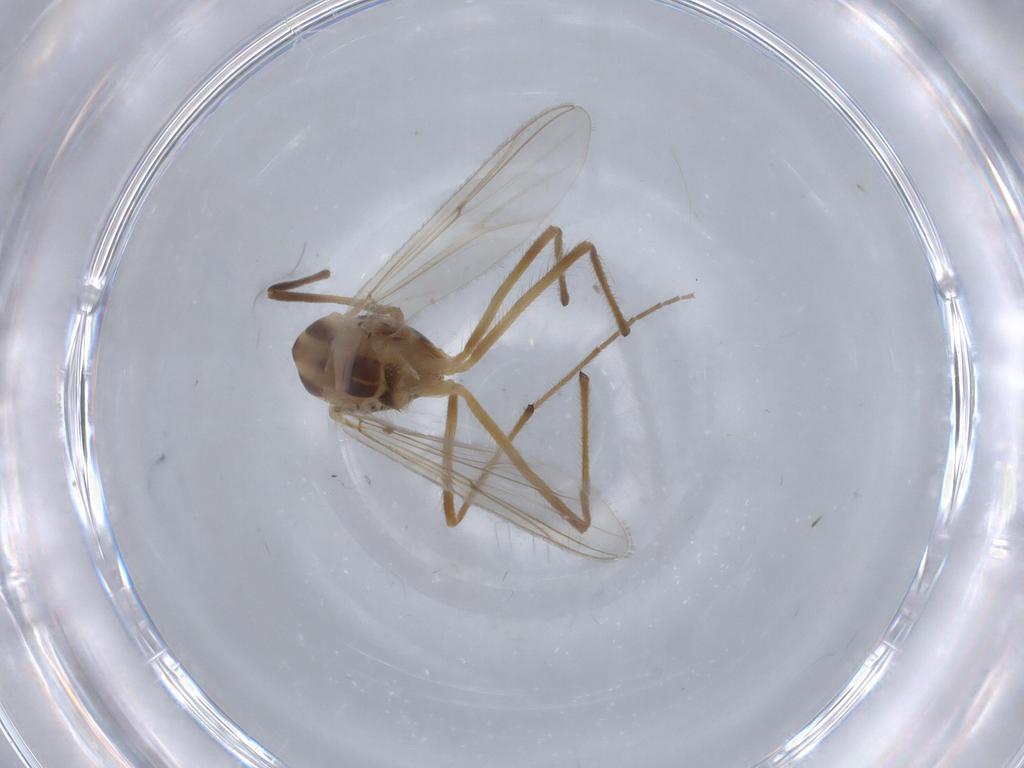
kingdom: Animalia
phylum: Arthropoda
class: Insecta
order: Diptera
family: Chironomidae
